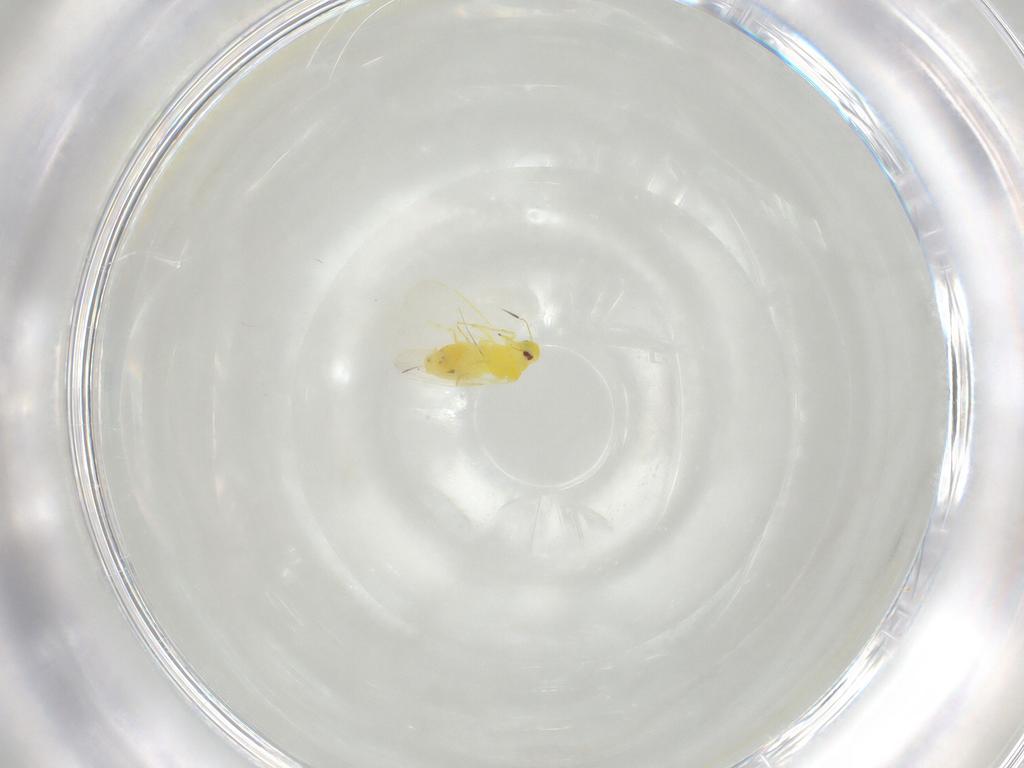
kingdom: Animalia
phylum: Arthropoda
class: Insecta
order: Hemiptera
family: Aleyrodidae
